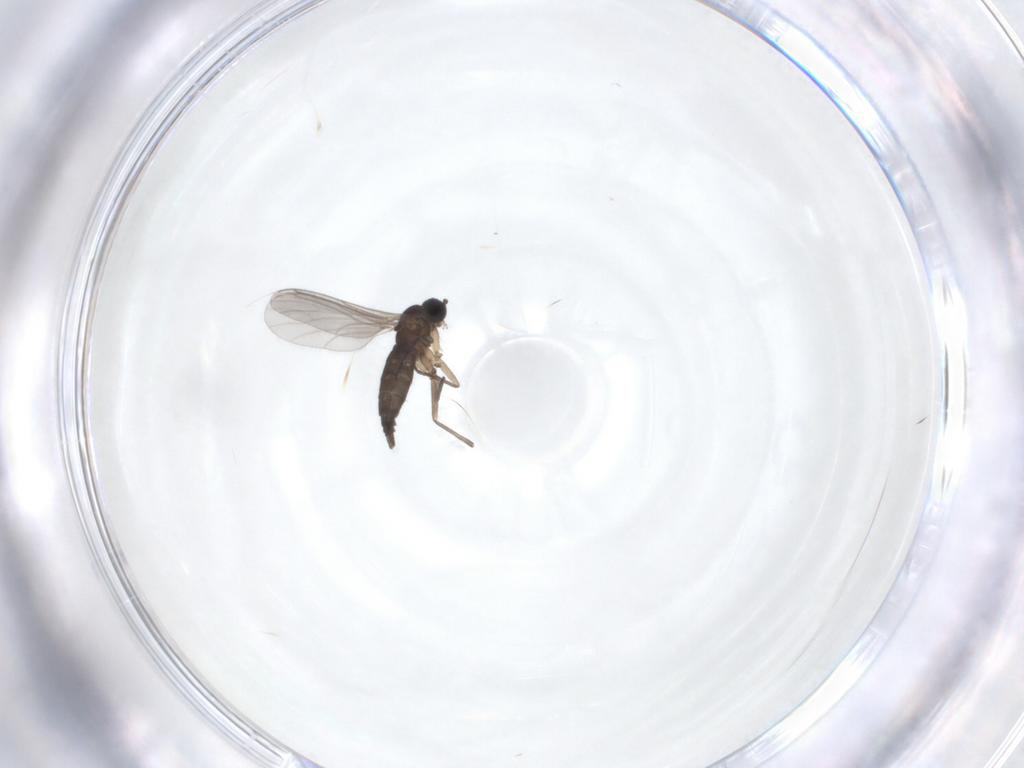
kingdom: Animalia
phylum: Arthropoda
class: Insecta
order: Diptera
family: Sciaridae
